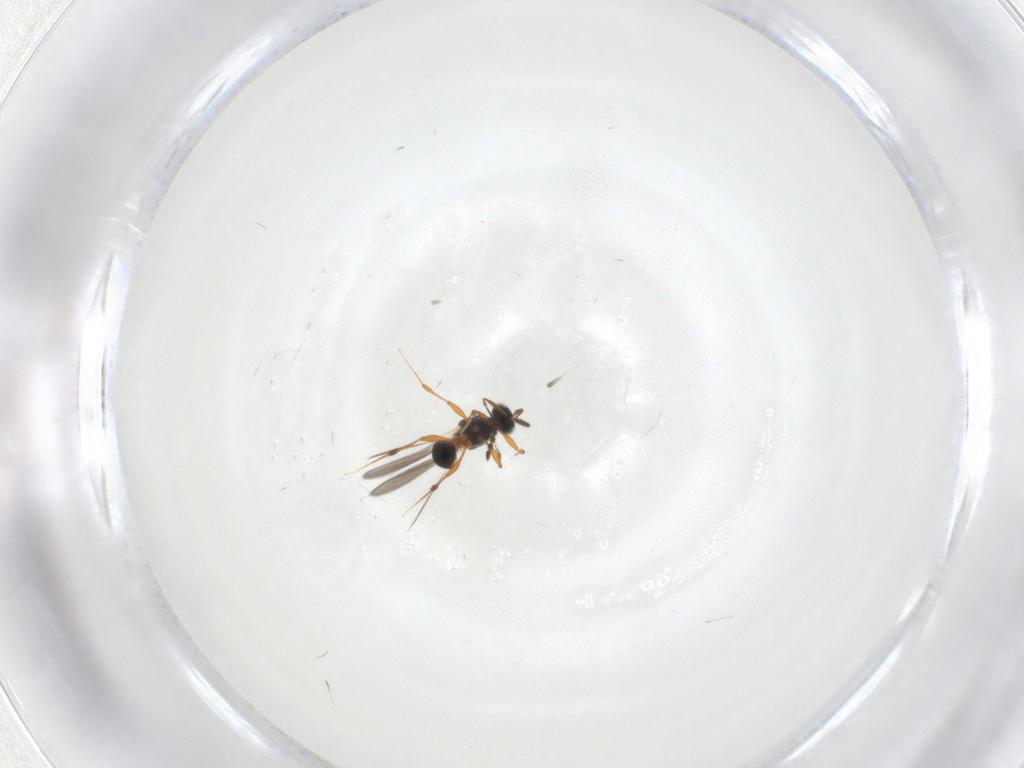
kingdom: Animalia
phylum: Arthropoda
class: Insecta
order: Hymenoptera
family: Platygastridae
